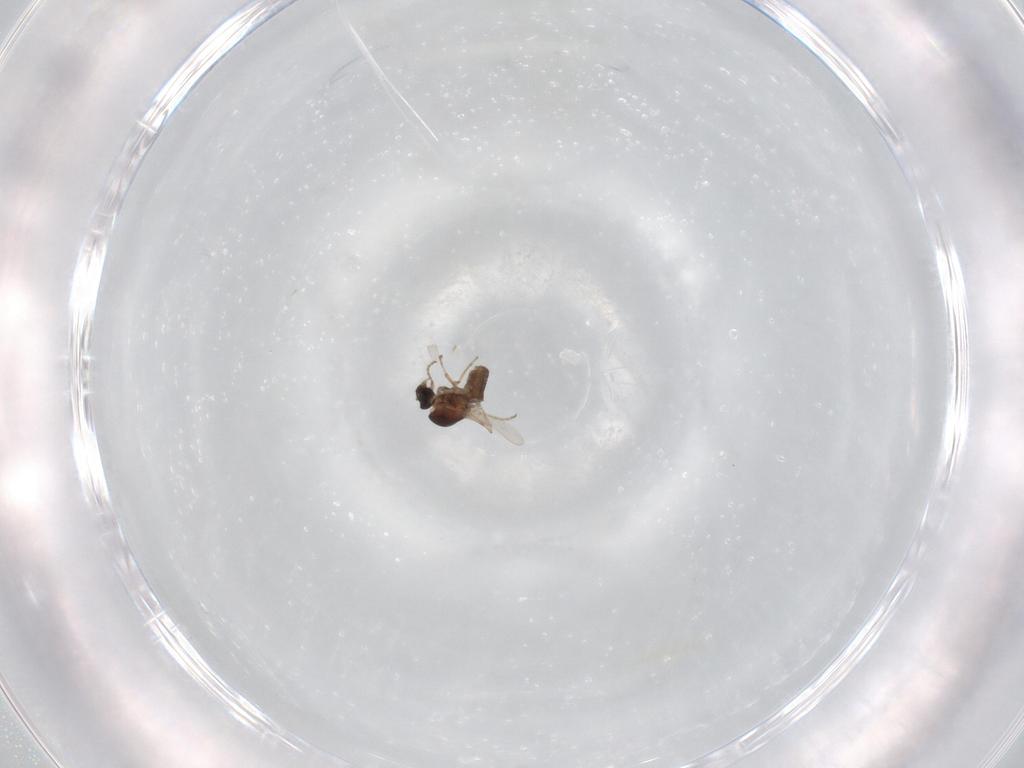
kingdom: Animalia
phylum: Arthropoda
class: Insecta
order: Diptera
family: Ceratopogonidae
